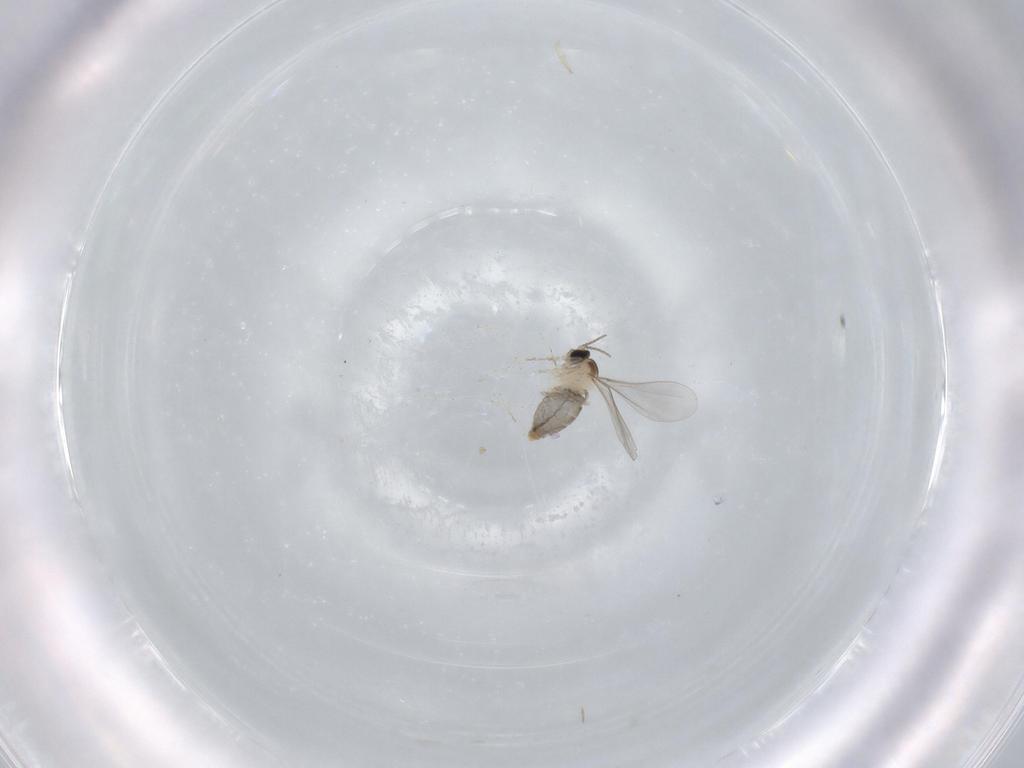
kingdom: Animalia
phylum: Arthropoda
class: Insecta
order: Diptera
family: Cecidomyiidae
